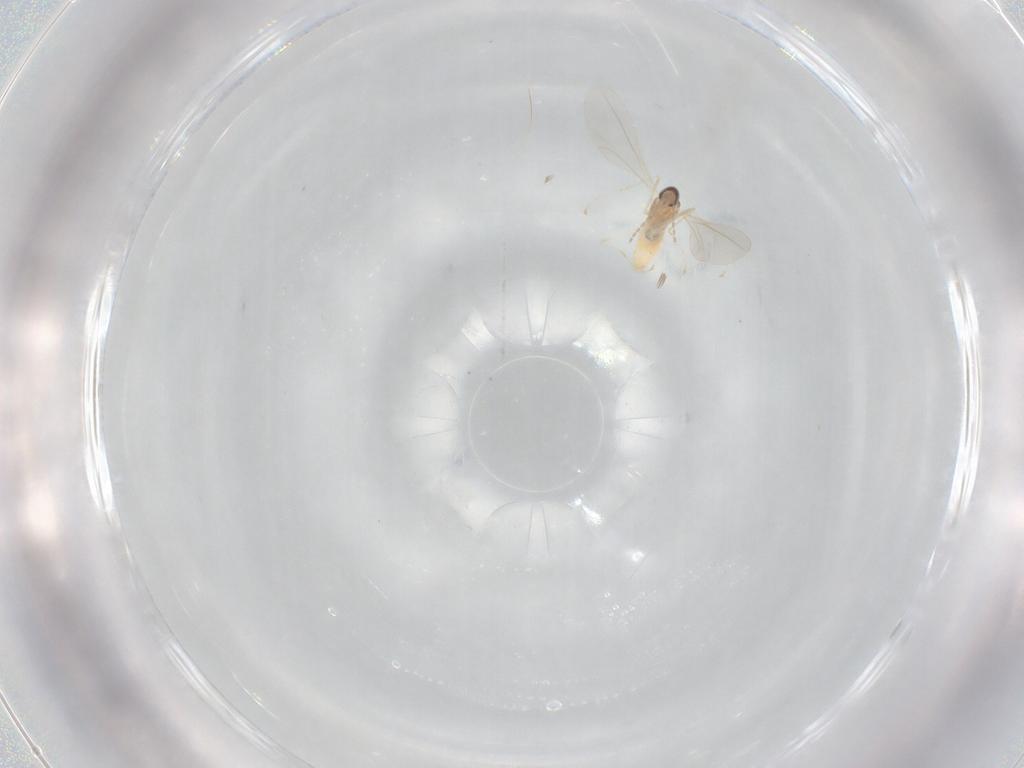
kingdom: Animalia
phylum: Arthropoda
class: Insecta
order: Diptera
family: Cecidomyiidae
